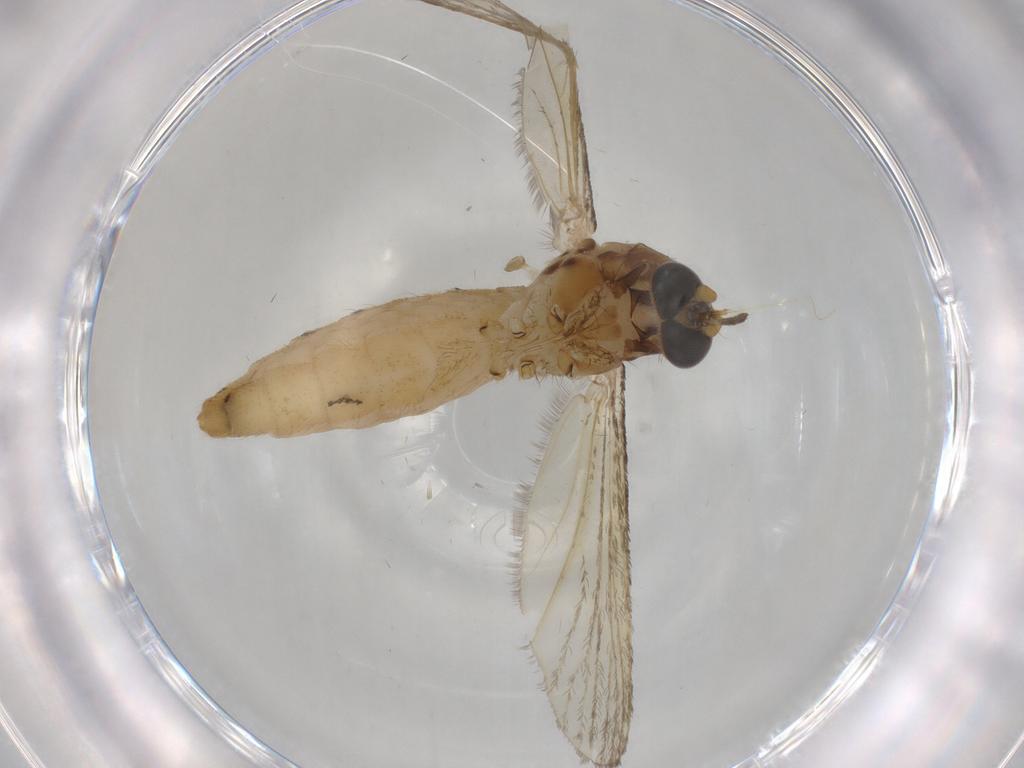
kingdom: Animalia
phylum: Arthropoda
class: Insecta
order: Diptera
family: Culicidae
